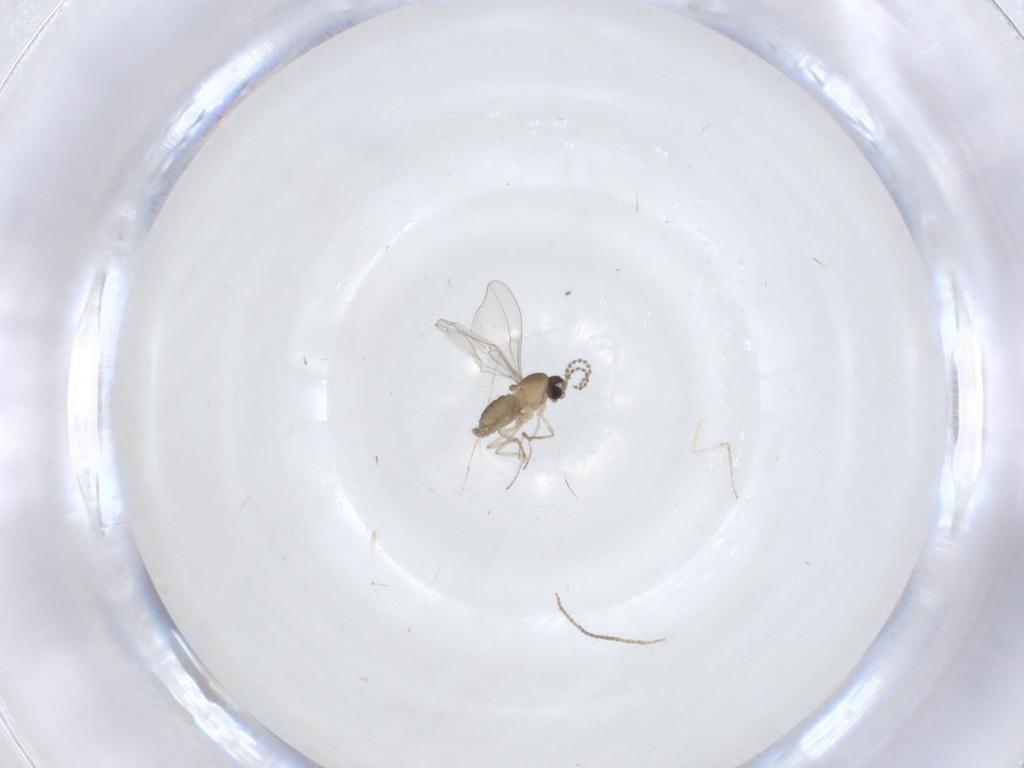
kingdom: Animalia
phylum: Arthropoda
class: Insecta
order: Diptera
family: Cecidomyiidae
